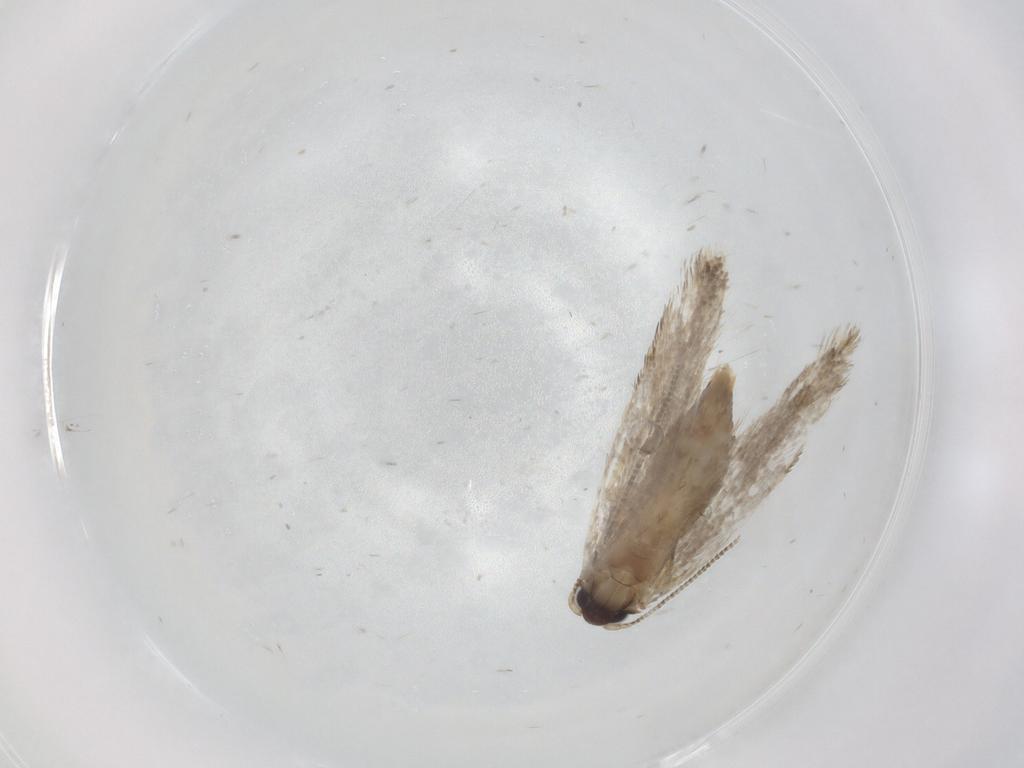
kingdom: Animalia
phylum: Arthropoda
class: Insecta
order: Lepidoptera
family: Tineidae
